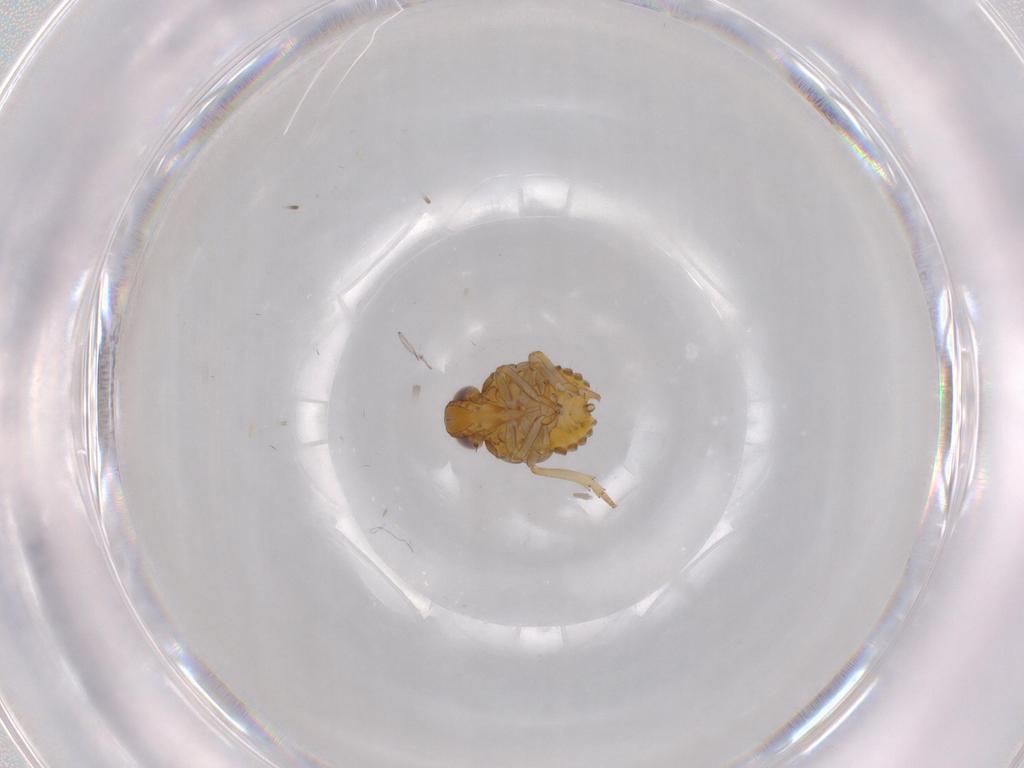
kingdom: Animalia
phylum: Arthropoda
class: Insecta
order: Hemiptera
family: Issidae
